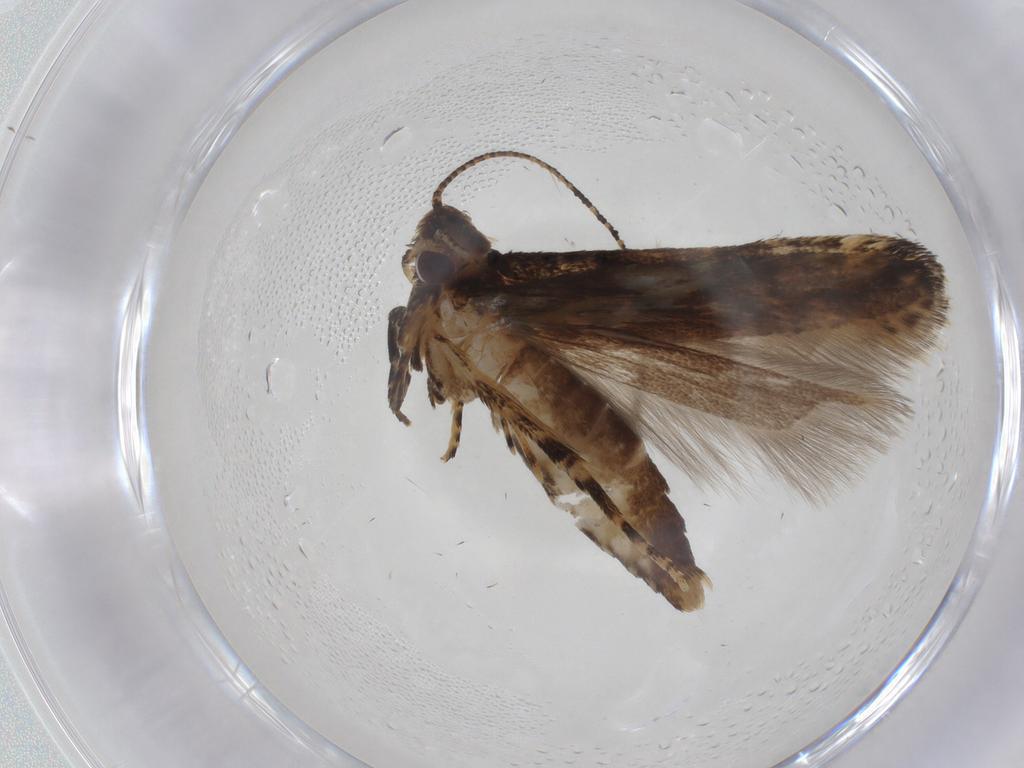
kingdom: Animalia
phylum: Arthropoda
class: Insecta
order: Lepidoptera
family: Gelechiidae
